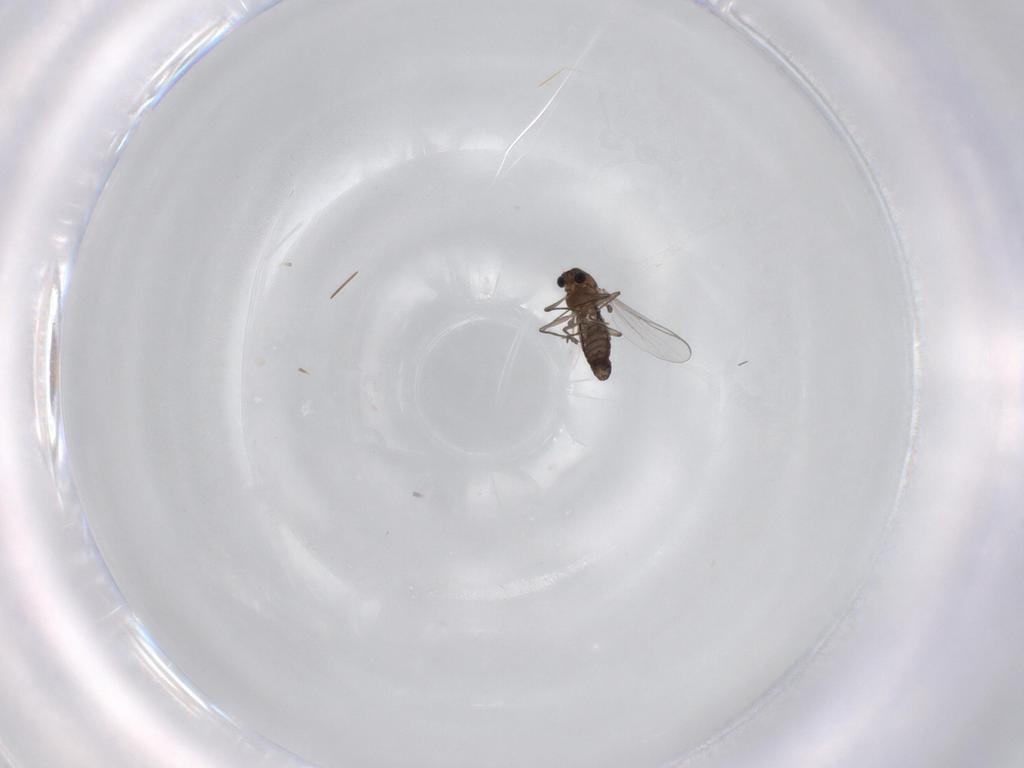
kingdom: Animalia
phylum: Arthropoda
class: Insecta
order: Diptera
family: Chironomidae
